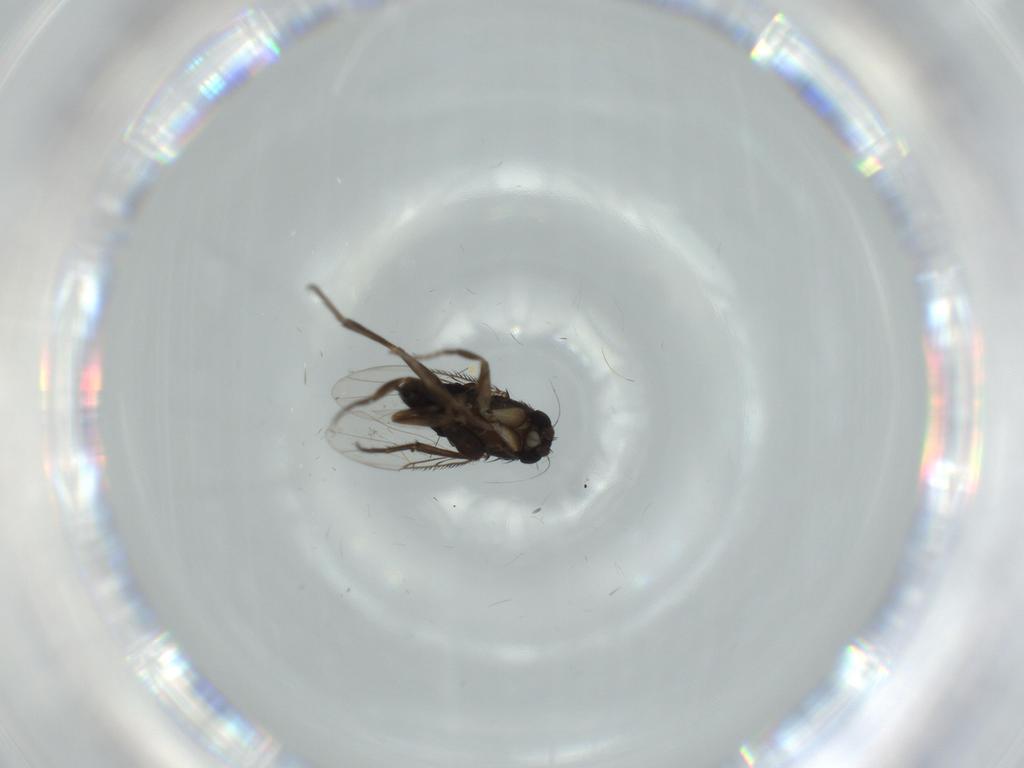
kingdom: Animalia
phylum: Arthropoda
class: Insecta
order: Diptera
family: Phoridae
